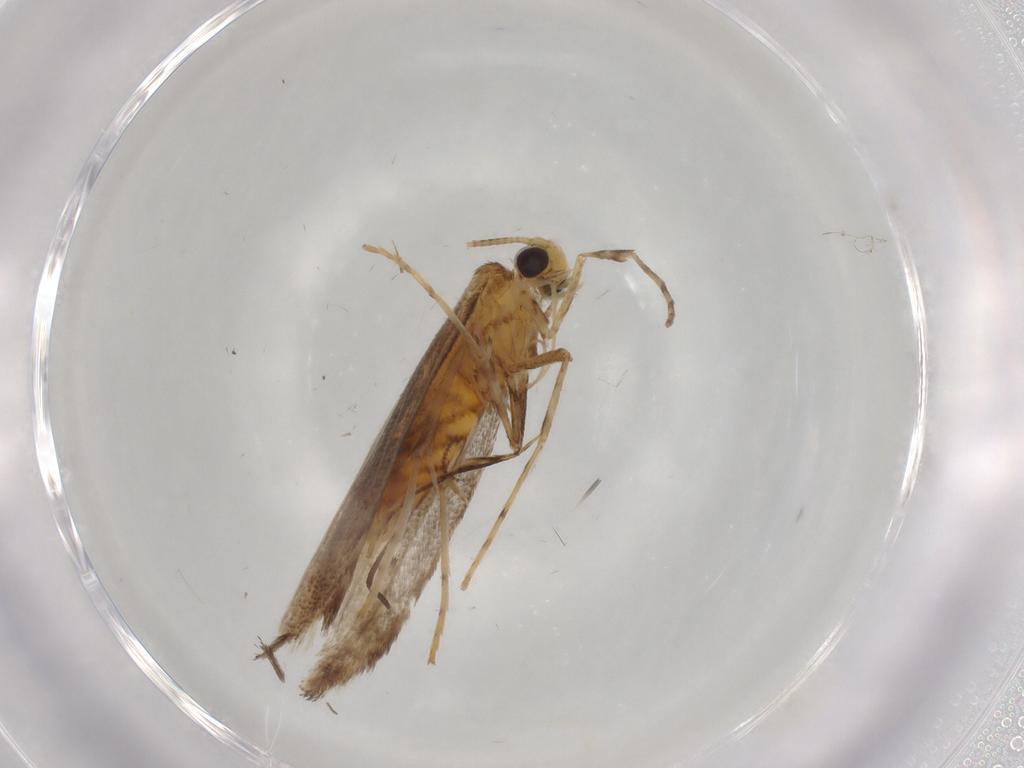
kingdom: Animalia
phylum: Arthropoda
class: Insecta
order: Lepidoptera
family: Gracillariidae
